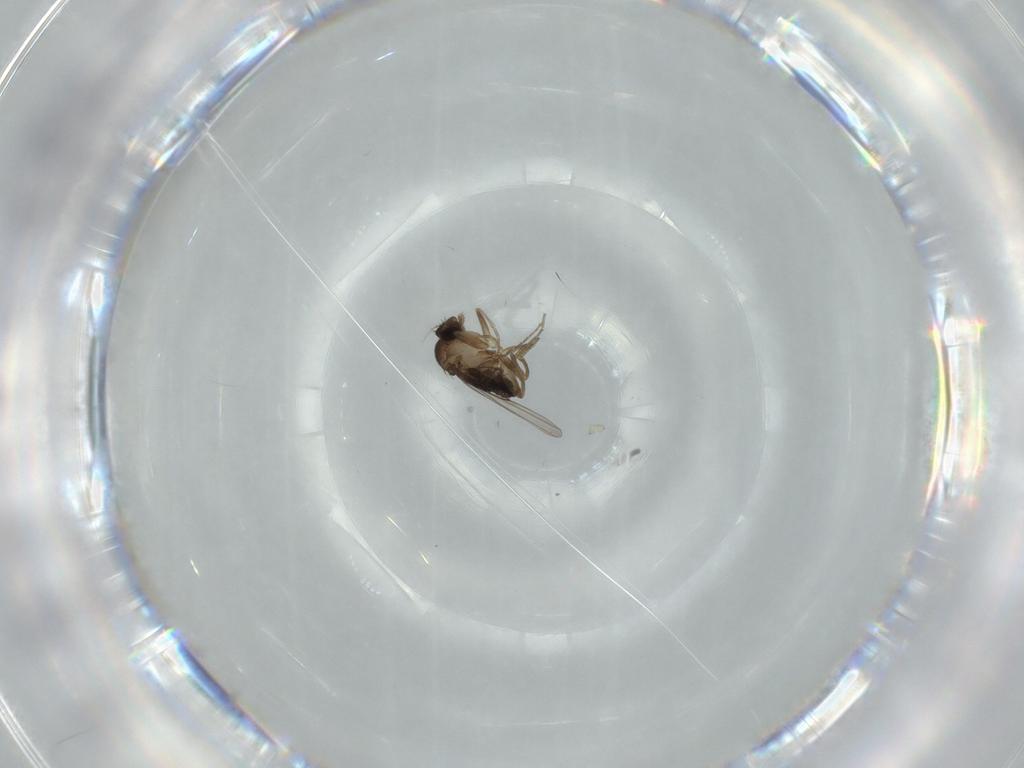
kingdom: Animalia
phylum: Arthropoda
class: Insecta
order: Diptera
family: Phoridae
